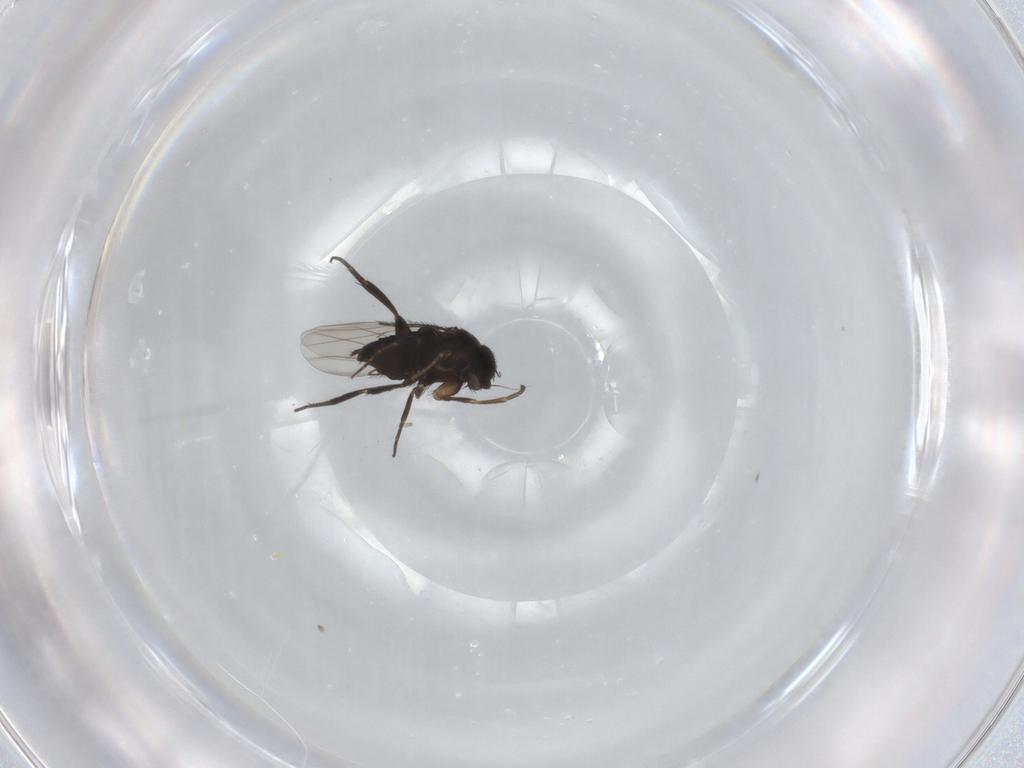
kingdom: Animalia
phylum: Arthropoda
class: Insecta
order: Diptera
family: Phoridae
